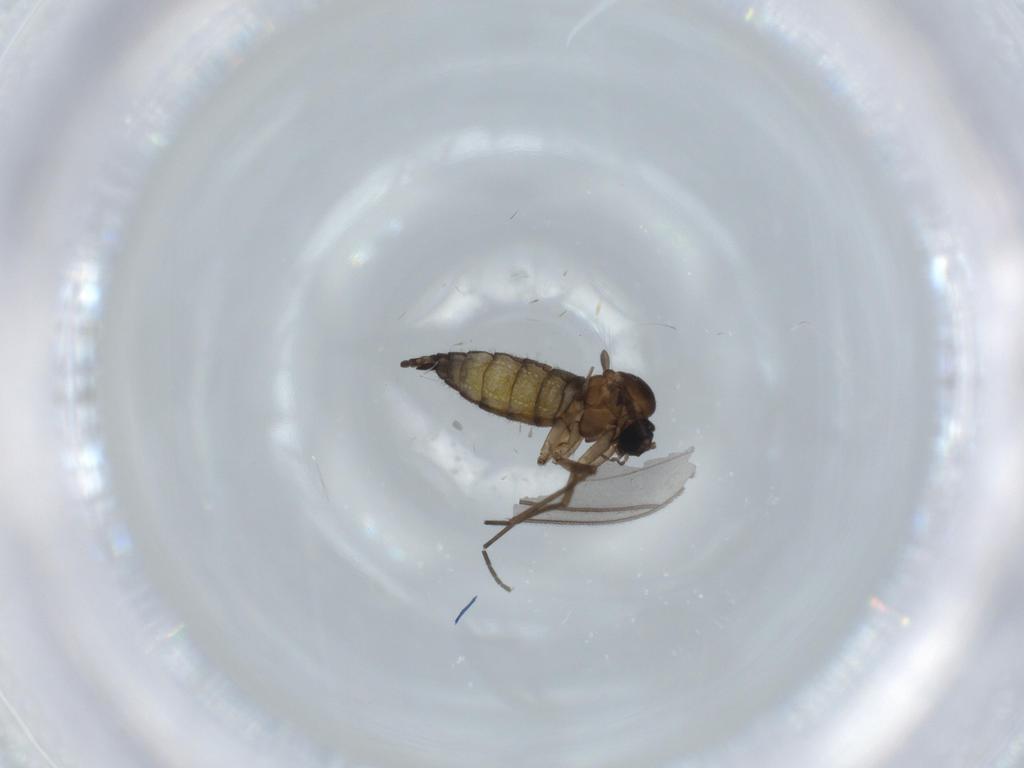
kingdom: Animalia
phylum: Arthropoda
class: Insecta
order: Diptera
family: Sciaridae
